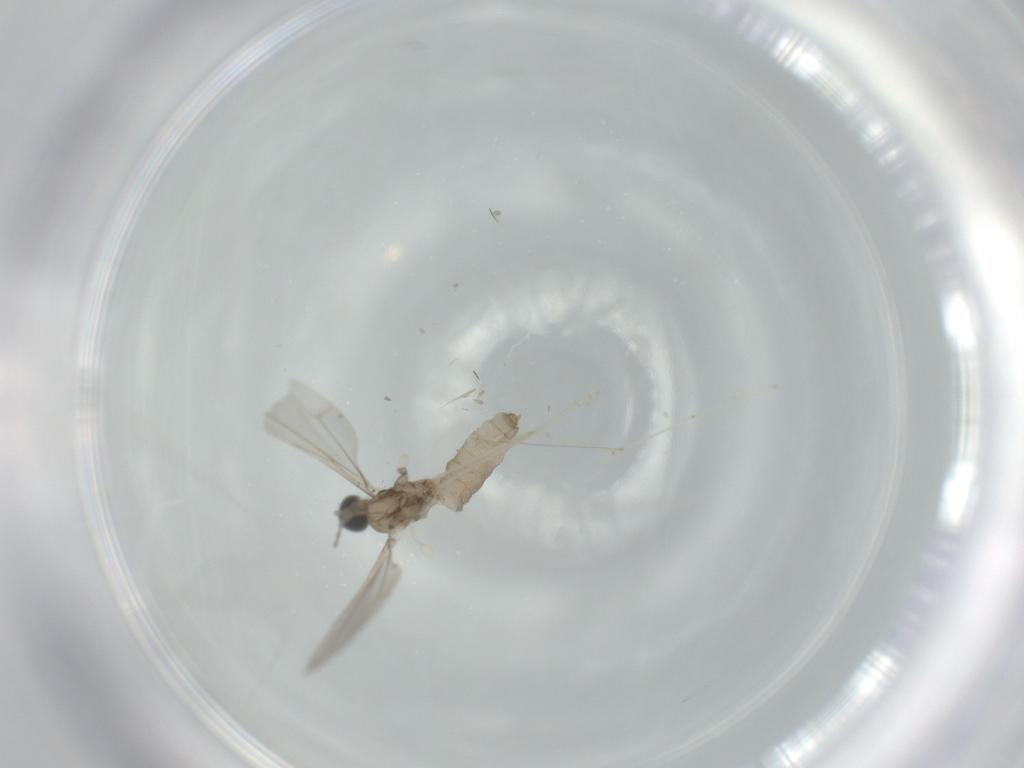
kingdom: Animalia
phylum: Arthropoda
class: Insecta
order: Diptera
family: Cecidomyiidae
